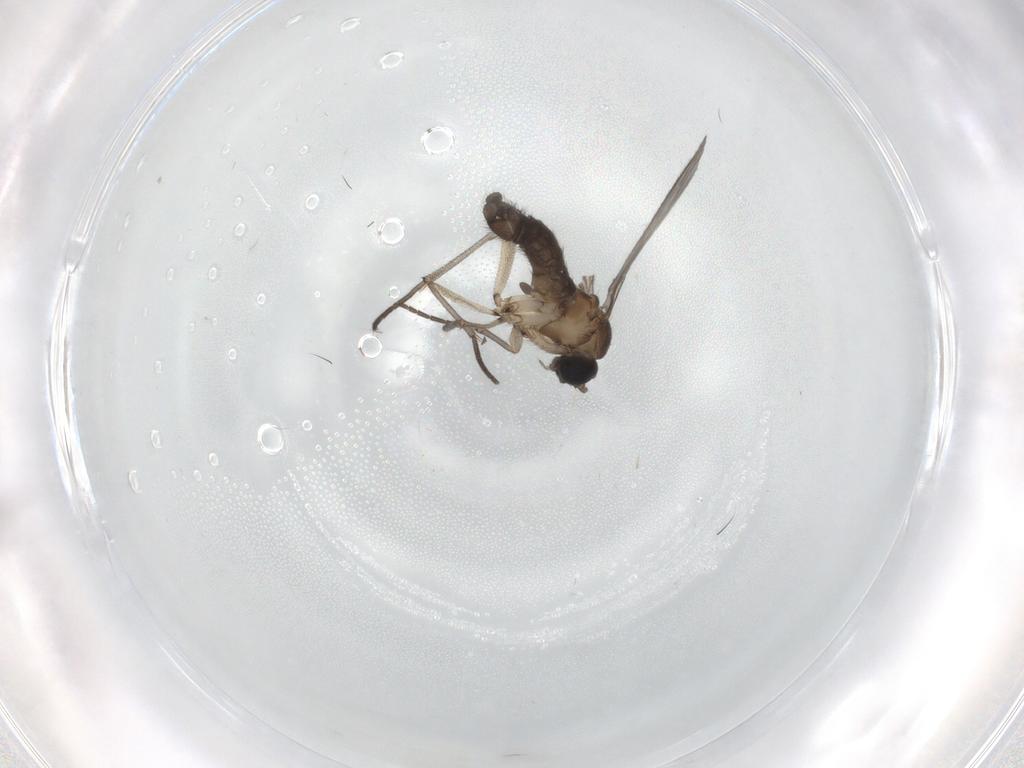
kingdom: Animalia
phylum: Arthropoda
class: Insecta
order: Diptera
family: Sciaridae
